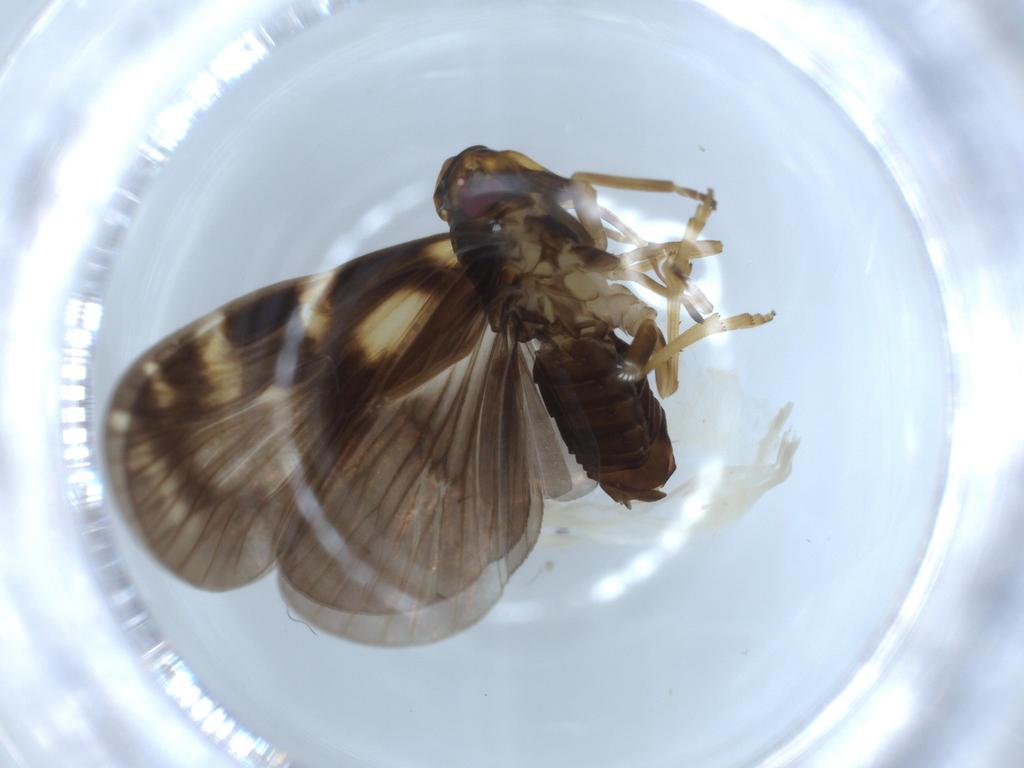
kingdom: Animalia
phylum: Arthropoda
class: Insecta
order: Hemiptera
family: Cixiidae
